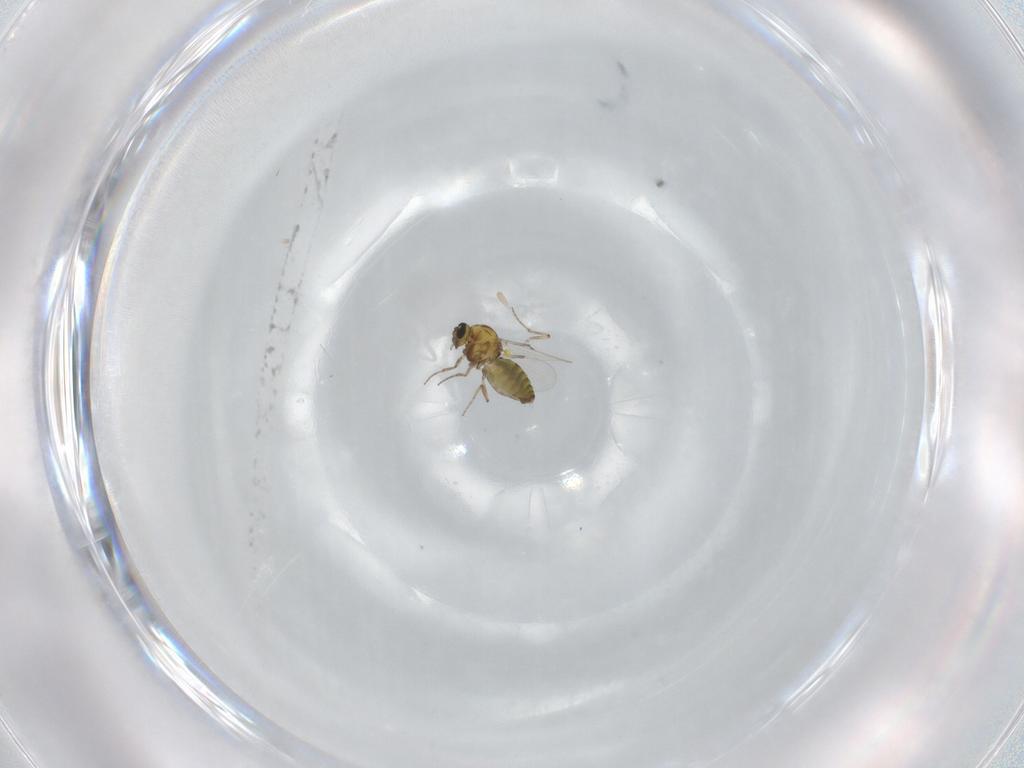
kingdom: Animalia
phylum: Arthropoda
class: Insecta
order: Diptera
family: Ceratopogonidae
